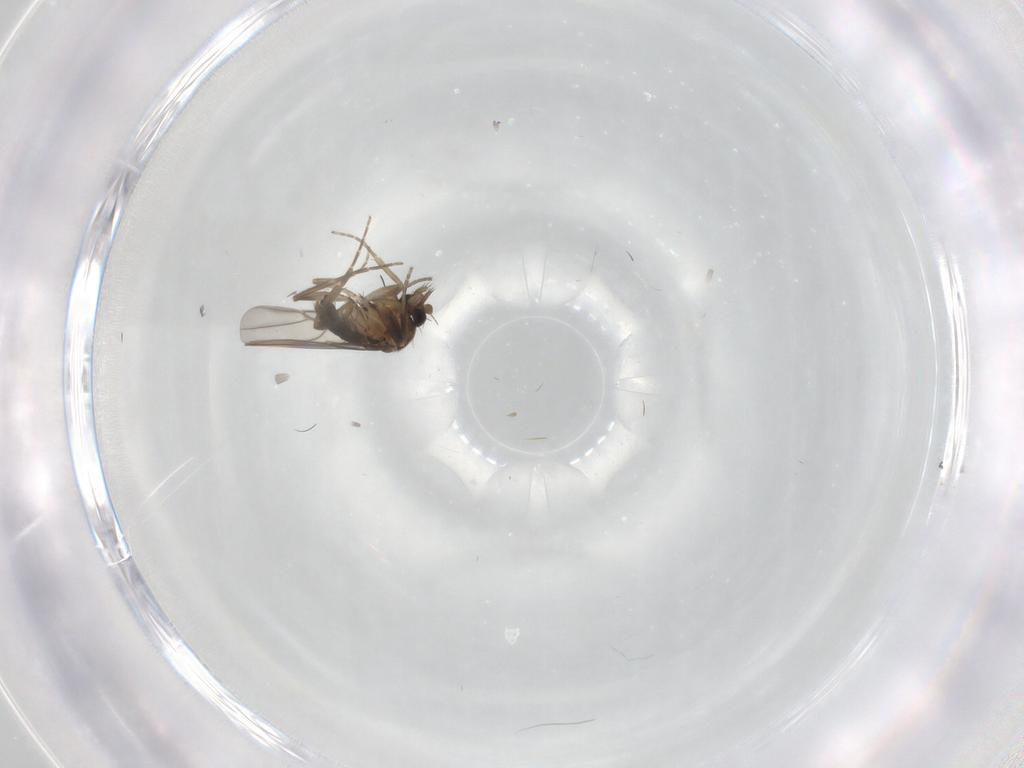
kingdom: Animalia
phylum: Arthropoda
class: Insecta
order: Diptera
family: Phoridae
